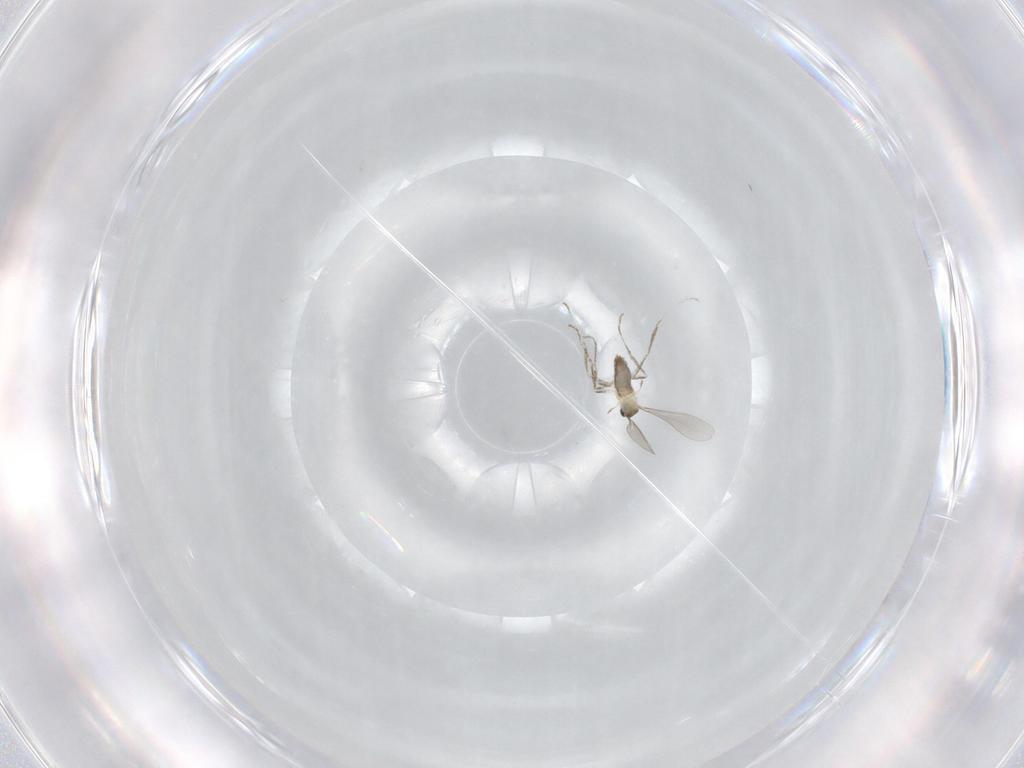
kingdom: Animalia
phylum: Arthropoda
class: Insecta
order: Diptera
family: Cecidomyiidae
